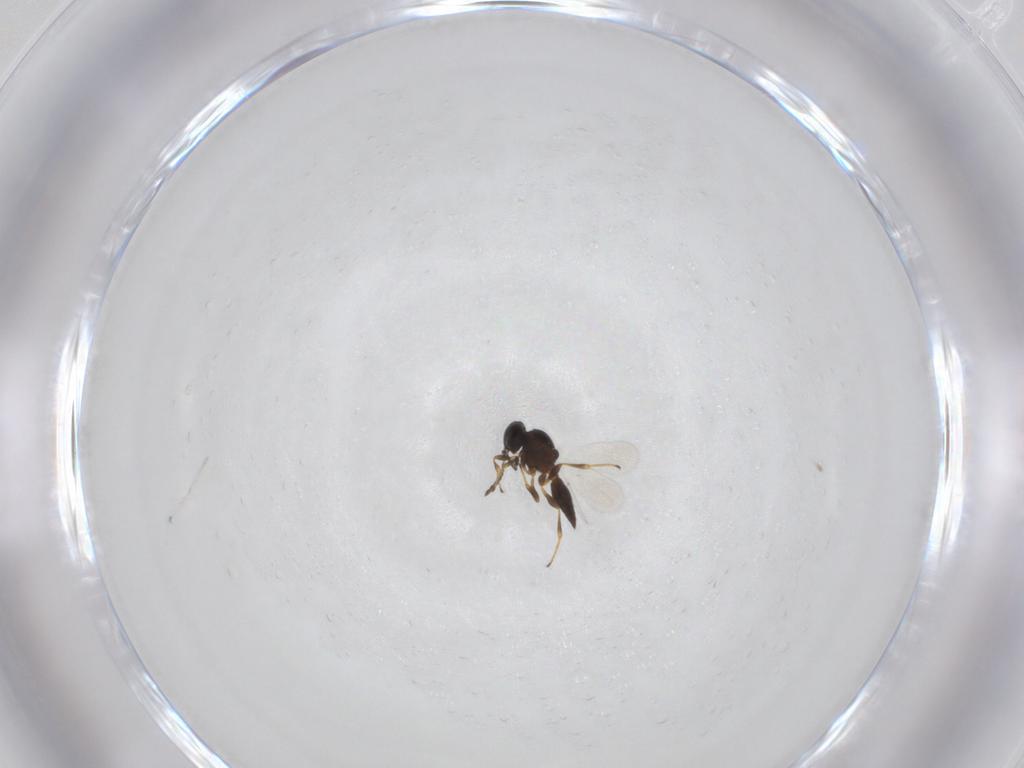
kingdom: Animalia
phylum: Arthropoda
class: Insecta
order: Hymenoptera
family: Platygastridae
